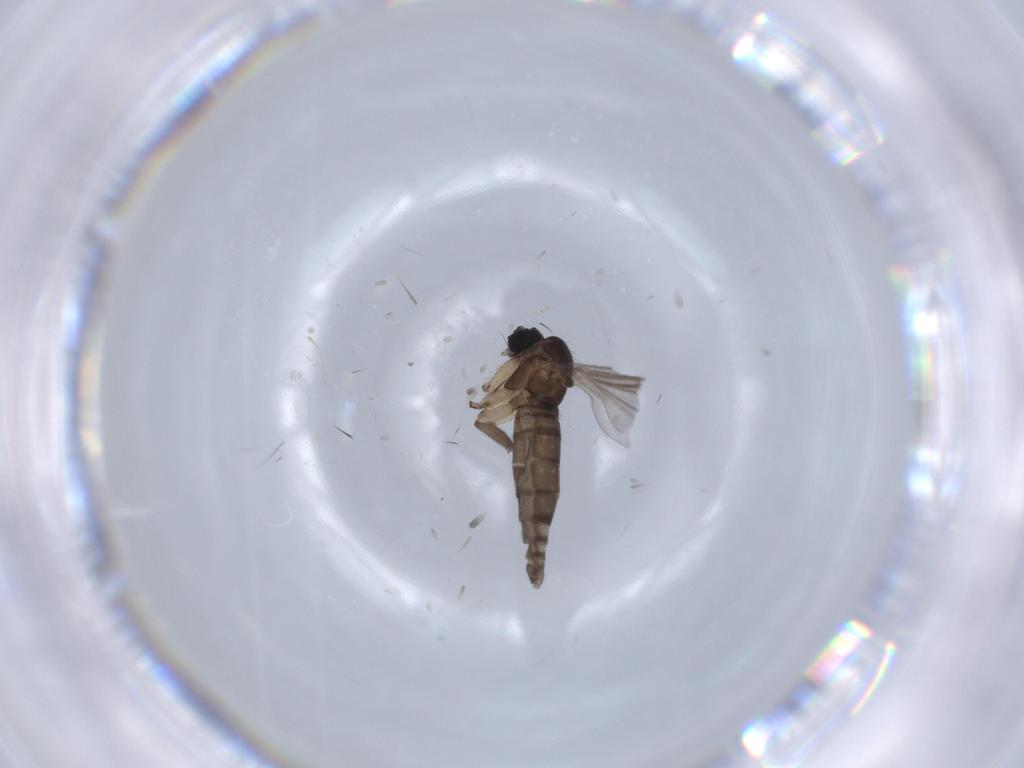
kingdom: Animalia
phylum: Arthropoda
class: Insecta
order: Diptera
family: Cecidomyiidae
